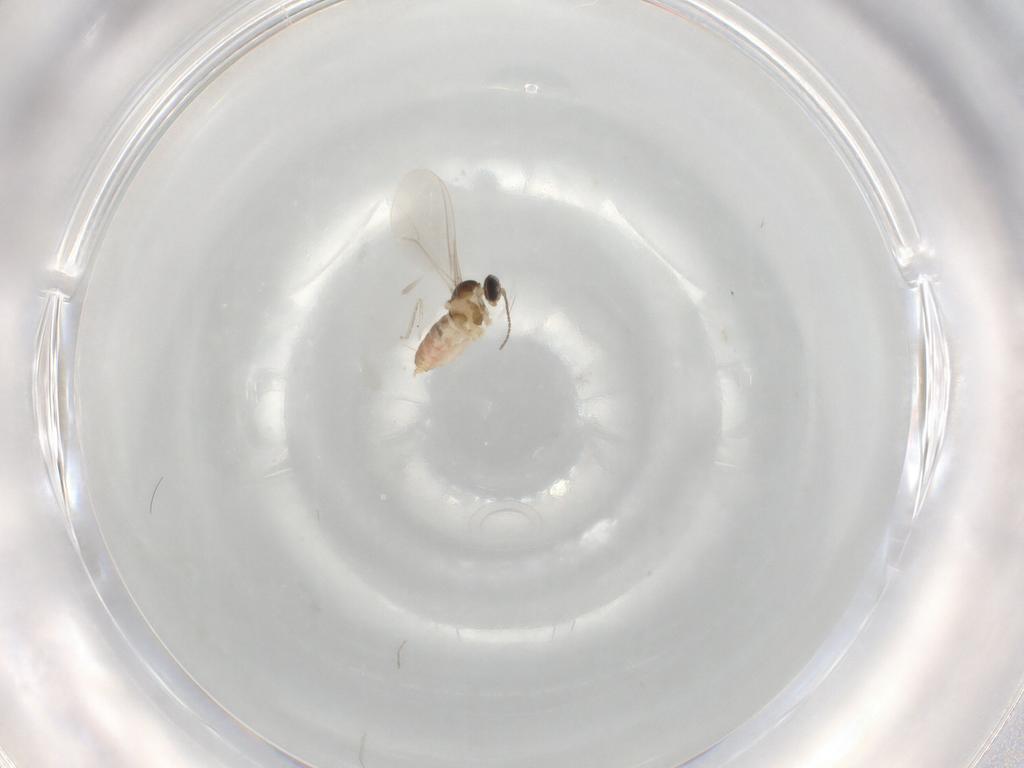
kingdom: Animalia
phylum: Arthropoda
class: Insecta
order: Diptera
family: Cecidomyiidae
